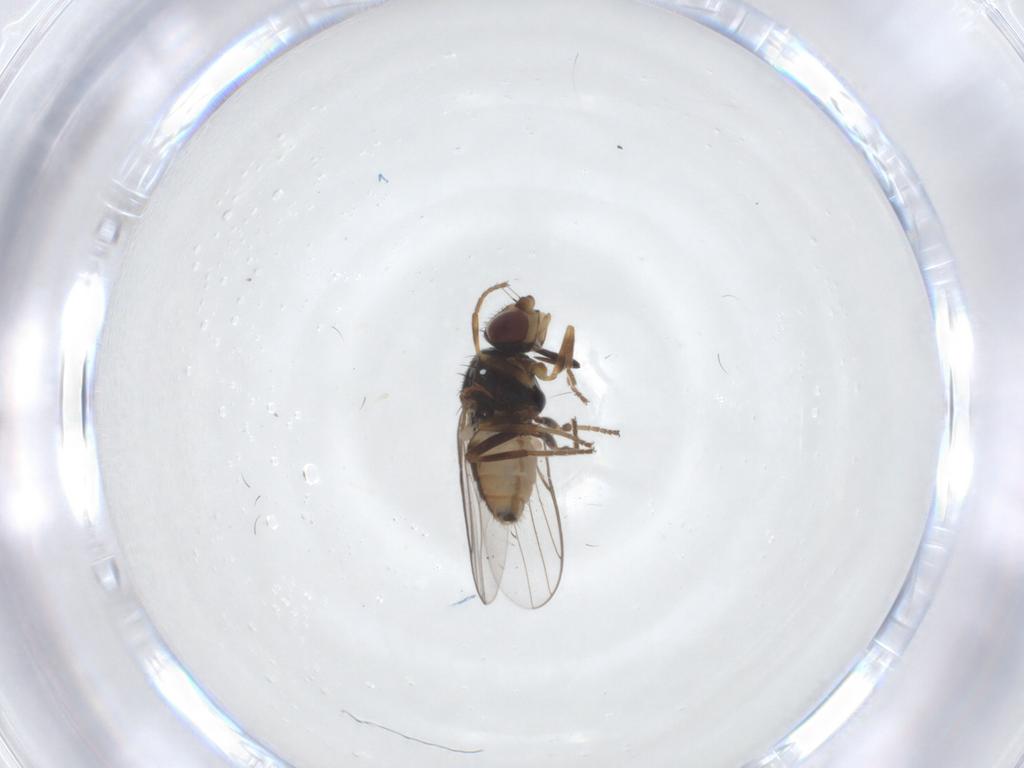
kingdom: Animalia
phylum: Arthropoda
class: Insecta
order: Diptera
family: Chloropidae
